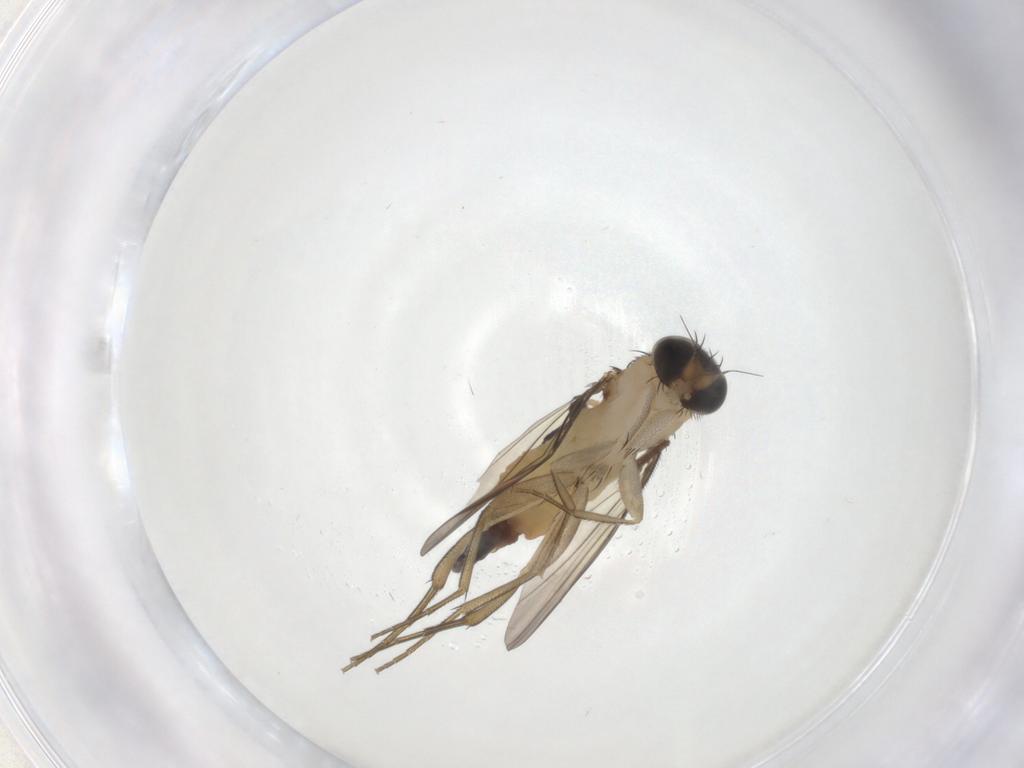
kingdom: Animalia
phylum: Arthropoda
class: Insecta
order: Diptera
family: Phoridae
